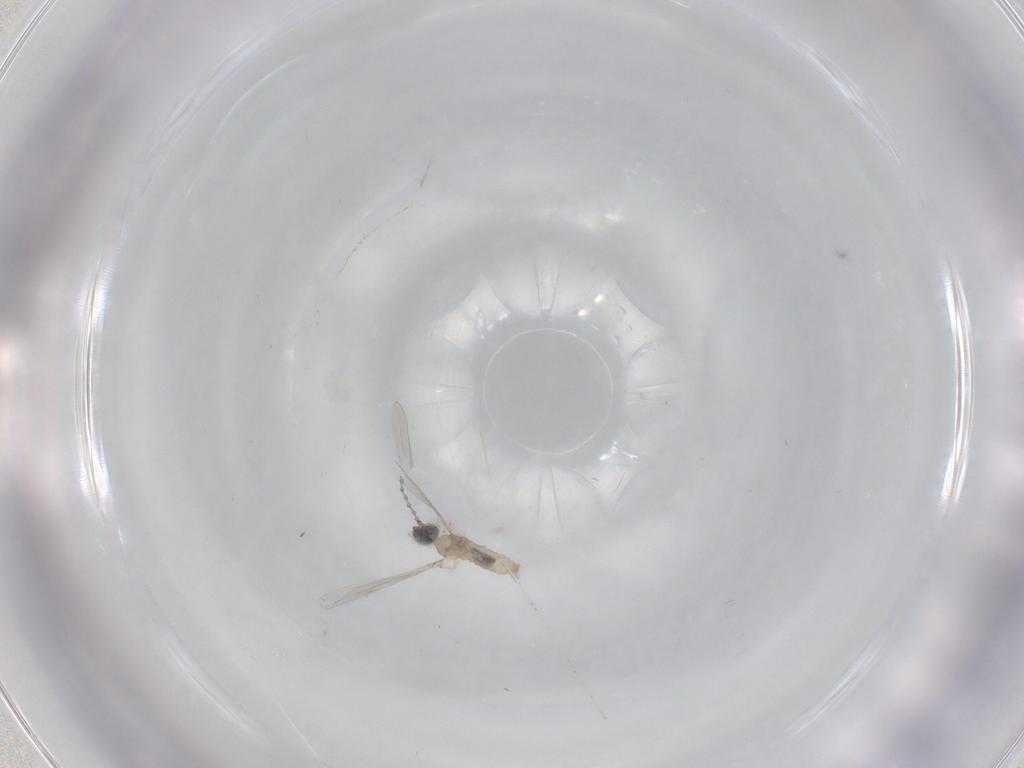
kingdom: Animalia
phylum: Arthropoda
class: Insecta
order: Diptera
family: Cecidomyiidae
